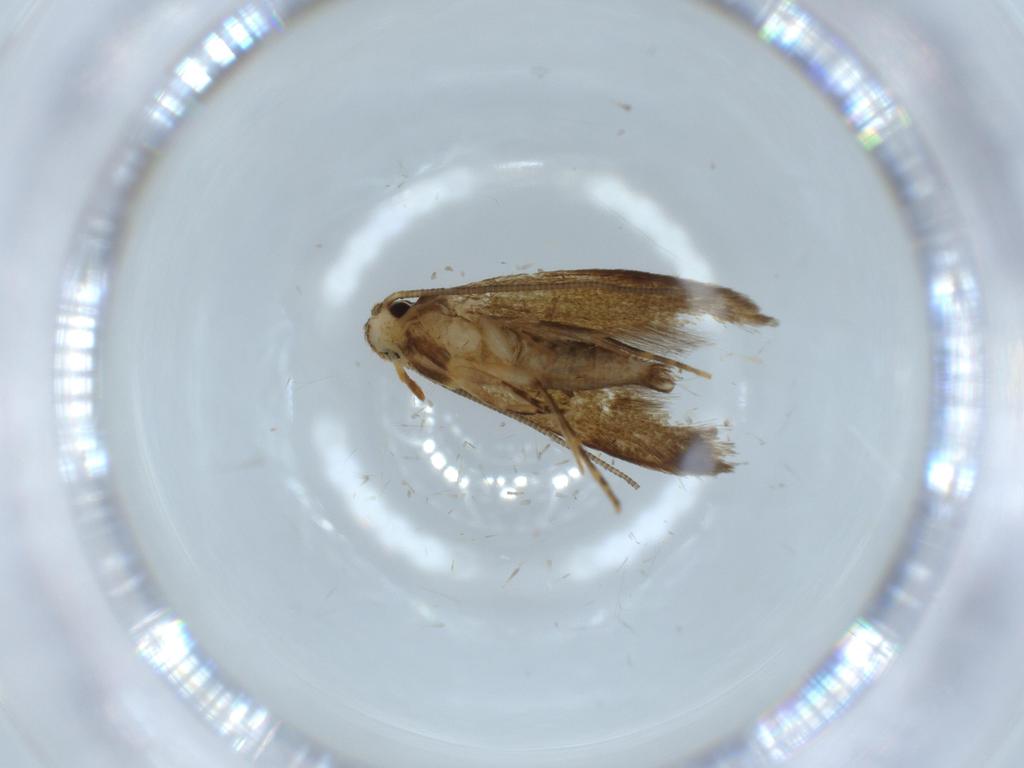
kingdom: Animalia
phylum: Arthropoda
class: Insecta
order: Lepidoptera
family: Tineidae
